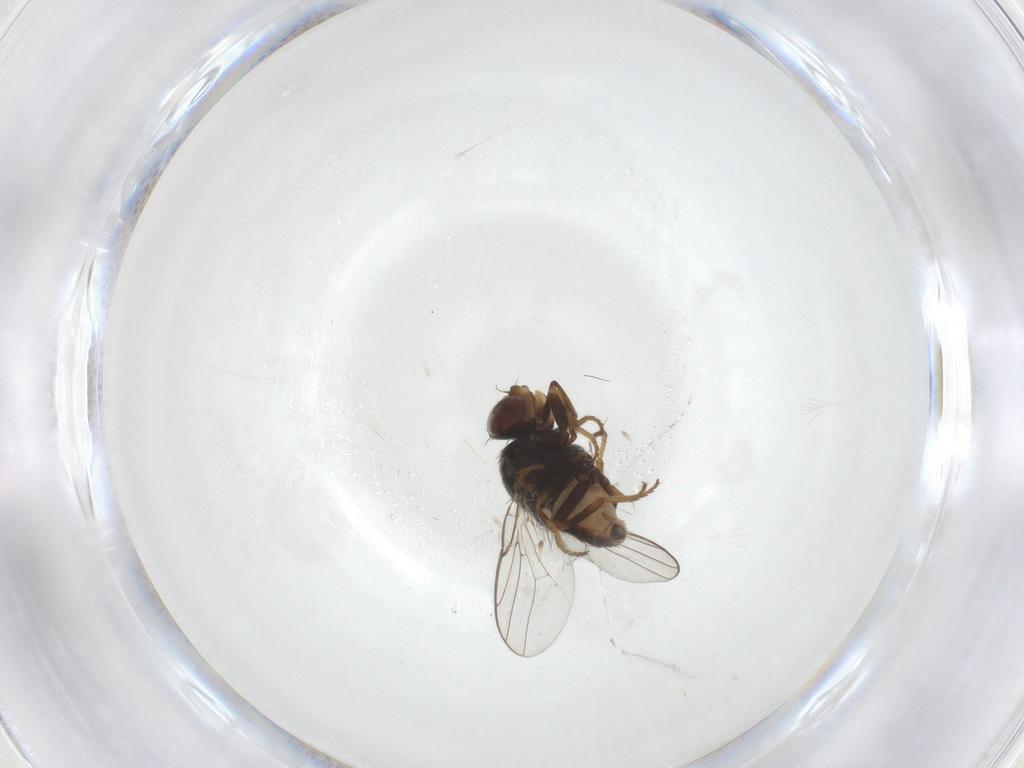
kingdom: Animalia
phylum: Arthropoda
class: Insecta
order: Diptera
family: Chloropidae
